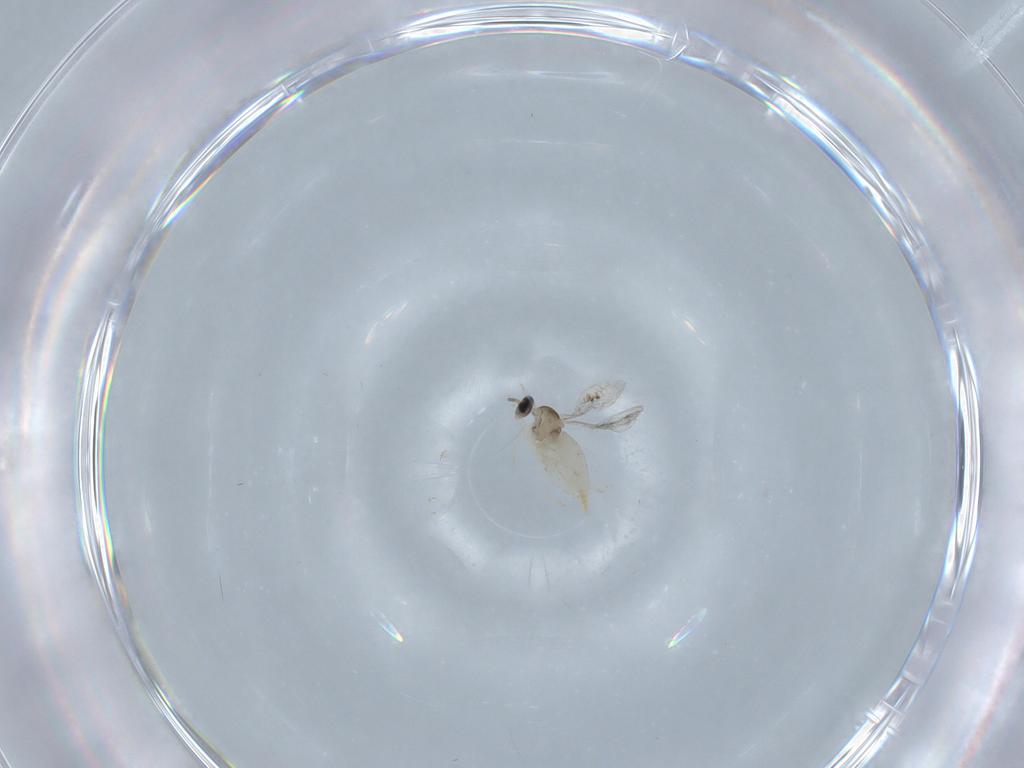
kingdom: Animalia
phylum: Arthropoda
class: Insecta
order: Diptera
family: Cecidomyiidae
